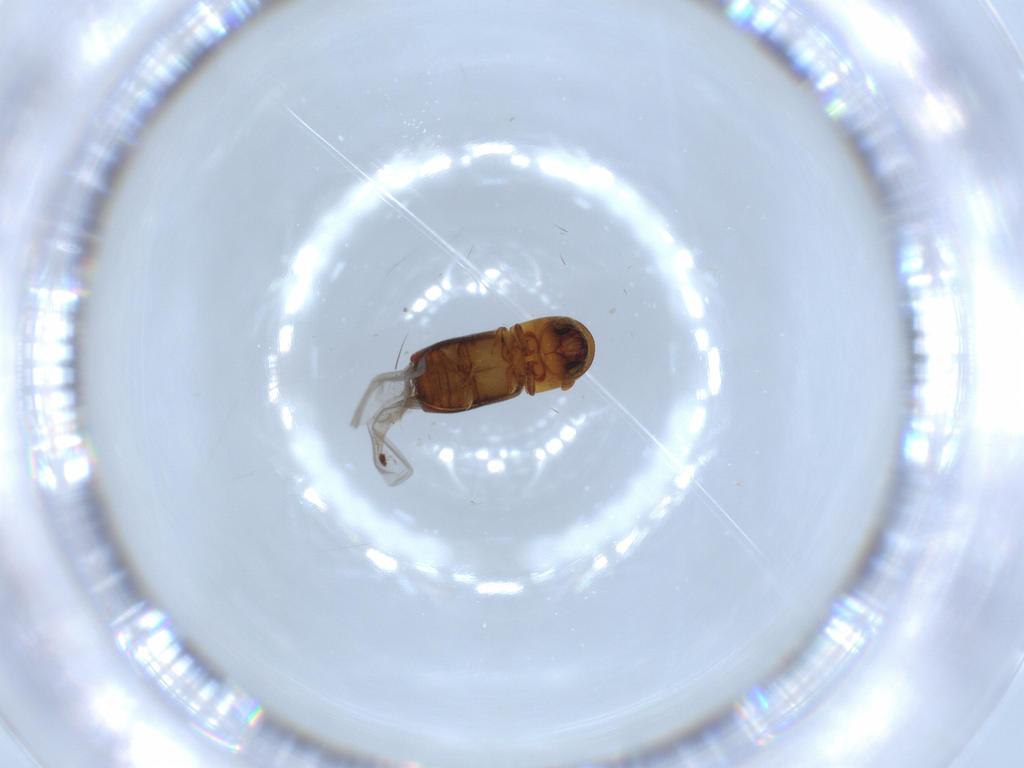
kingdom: Animalia
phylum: Arthropoda
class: Insecta
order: Coleoptera
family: Curculionidae
